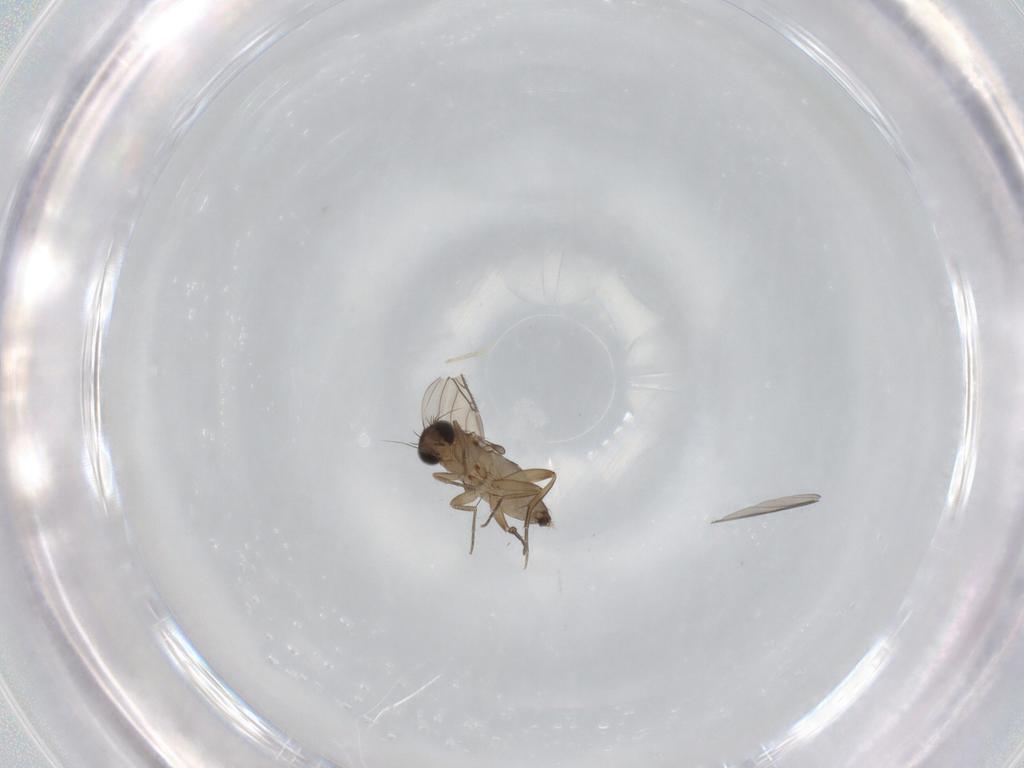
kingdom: Animalia
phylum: Arthropoda
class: Insecta
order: Diptera
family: Phoridae
